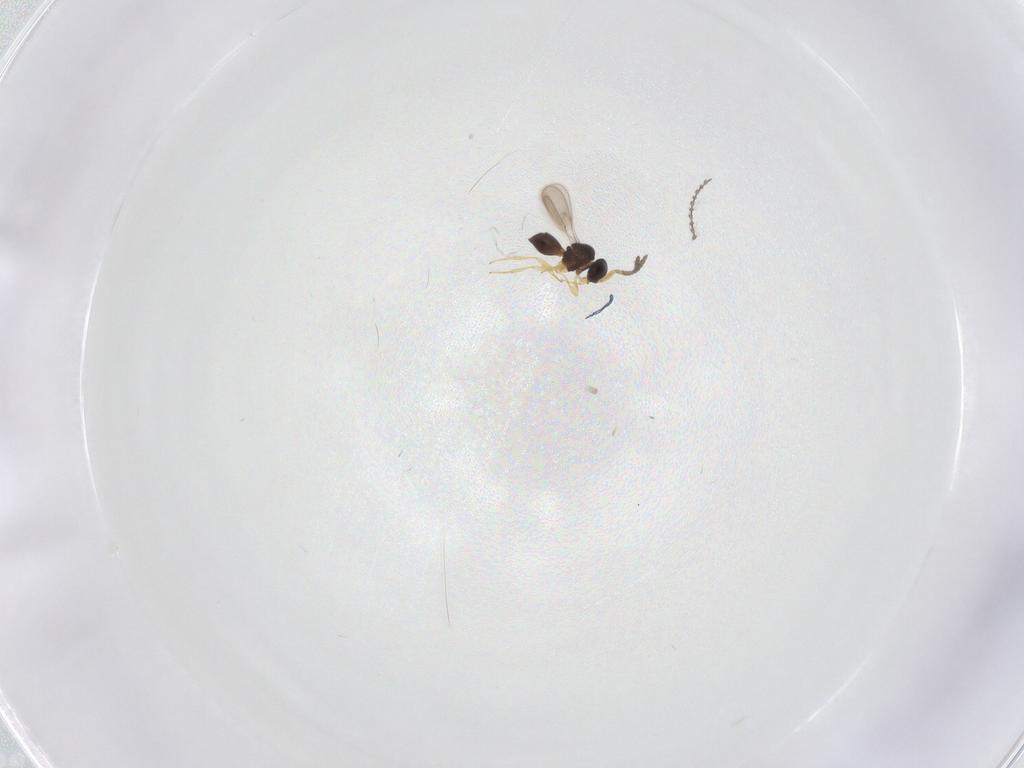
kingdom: Animalia
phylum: Arthropoda
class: Insecta
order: Hymenoptera
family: Scelionidae
